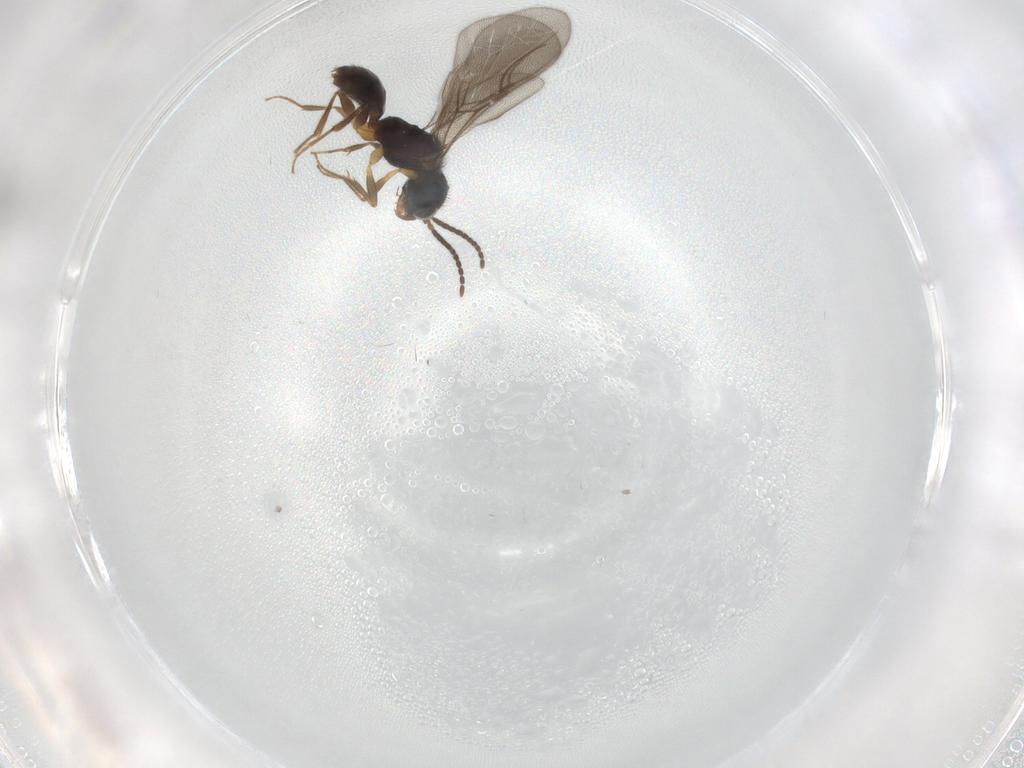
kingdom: Animalia
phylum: Arthropoda
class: Insecta
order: Hymenoptera
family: Bethylidae
